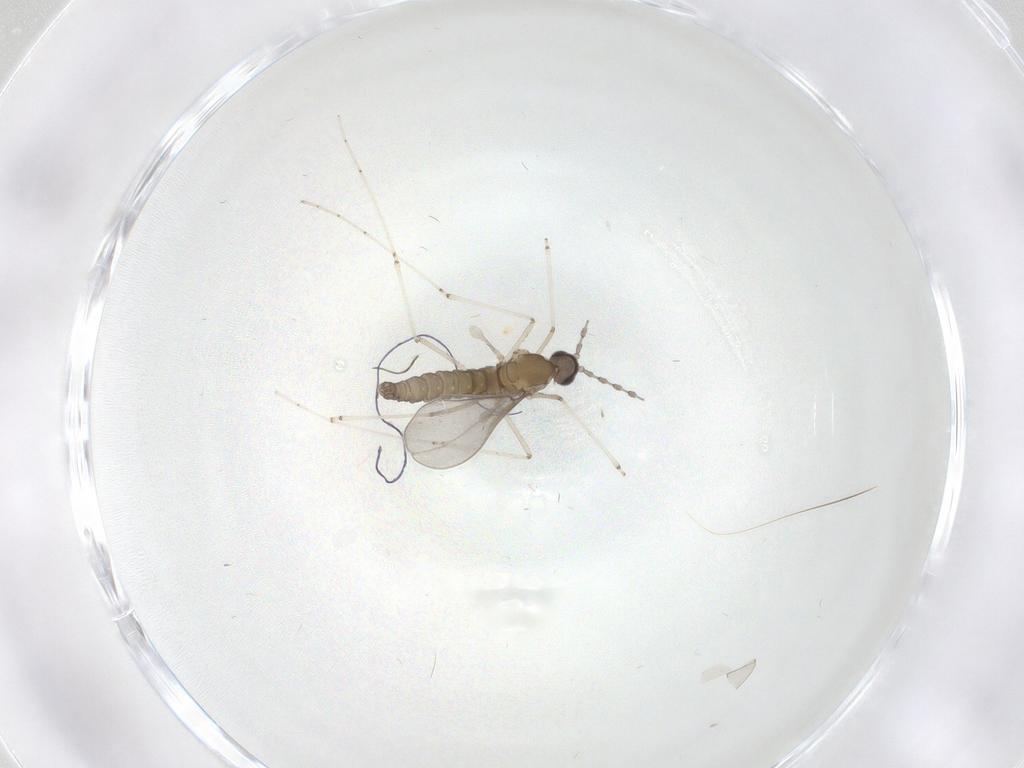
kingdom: Animalia
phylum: Arthropoda
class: Insecta
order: Diptera
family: Chironomidae
